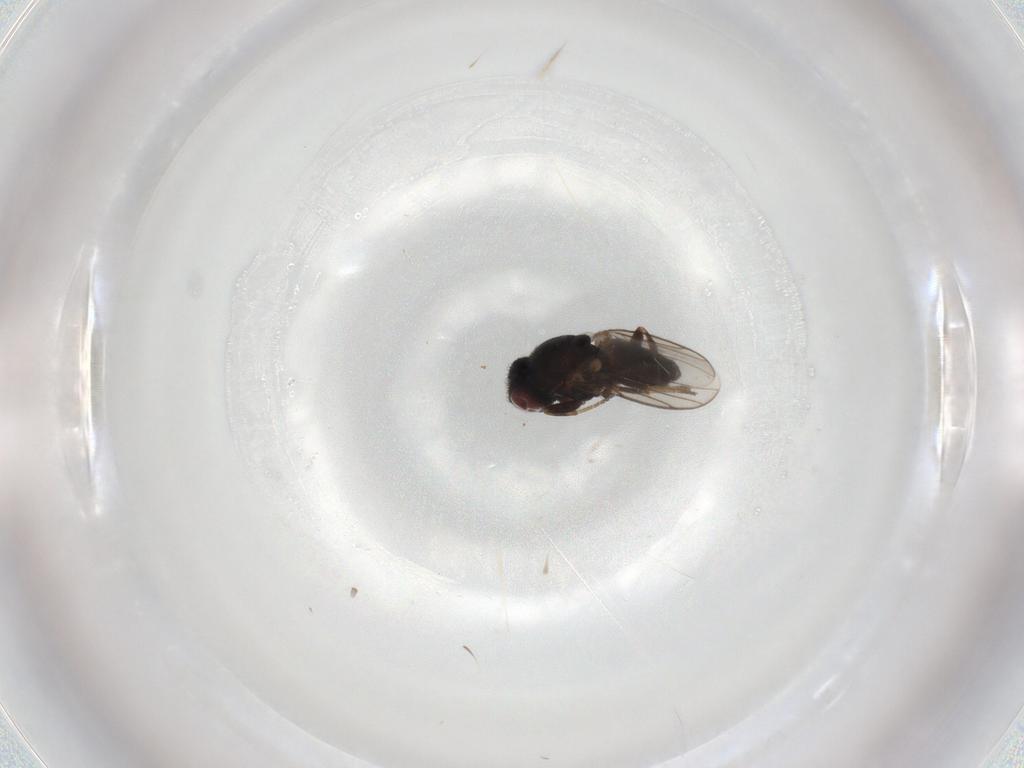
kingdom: Animalia
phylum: Arthropoda
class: Insecta
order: Diptera
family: Chloropidae
